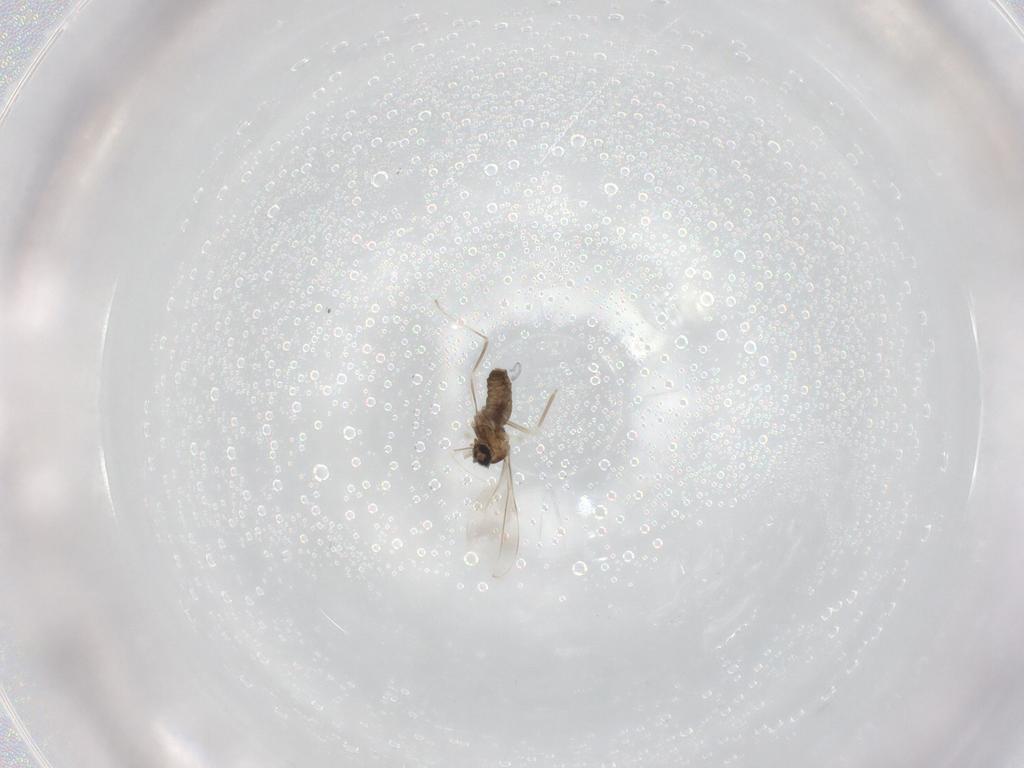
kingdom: Animalia
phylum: Arthropoda
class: Insecta
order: Diptera
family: Cecidomyiidae
